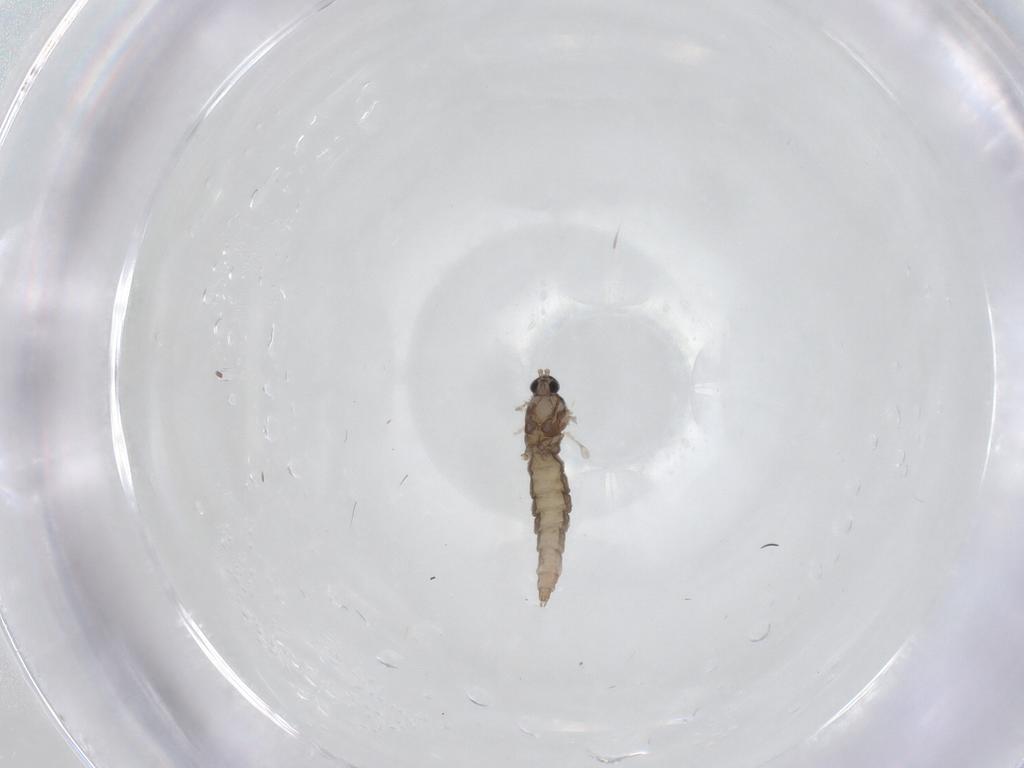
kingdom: Animalia
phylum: Arthropoda
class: Insecta
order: Diptera
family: Cecidomyiidae
